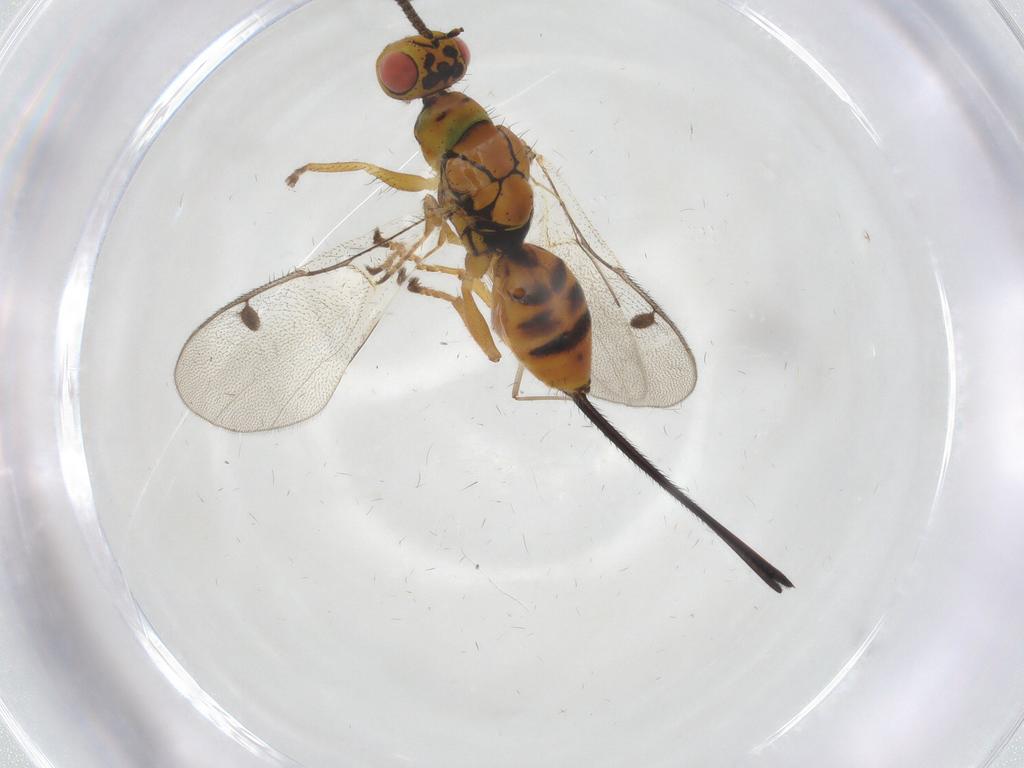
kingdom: Animalia
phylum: Arthropoda
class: Insecta
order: Hymenoptera
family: Megastigmidae
